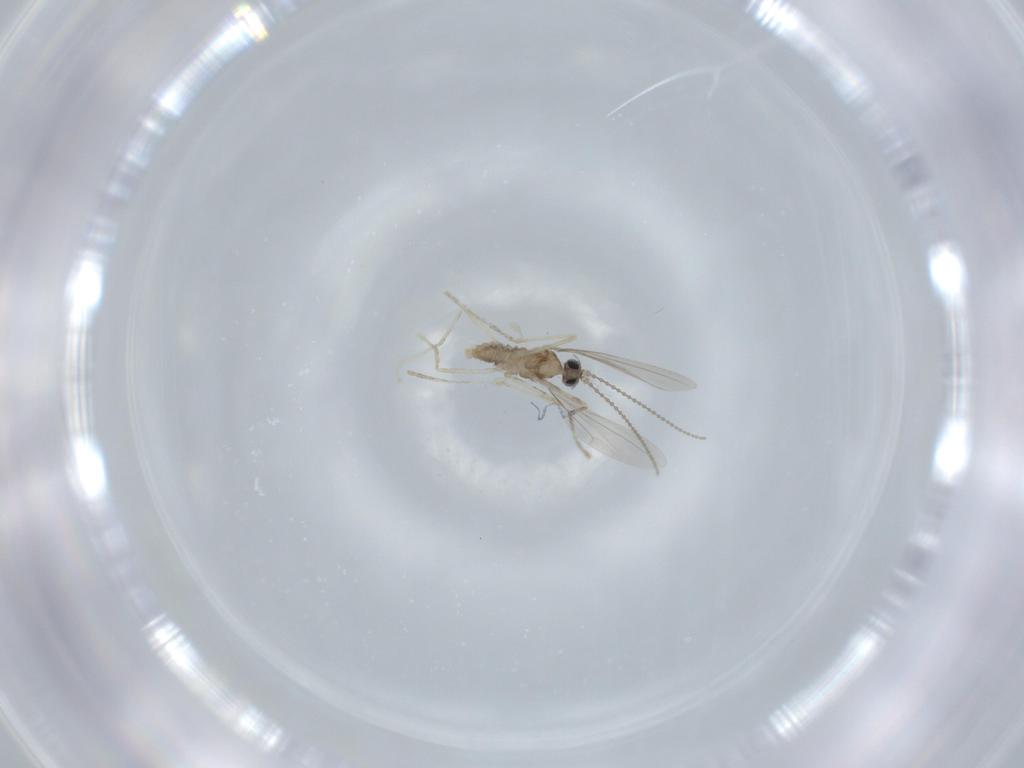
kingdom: Animalia
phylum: Arthropoda
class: Insecta
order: Diptera
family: Cecidomyiidae
